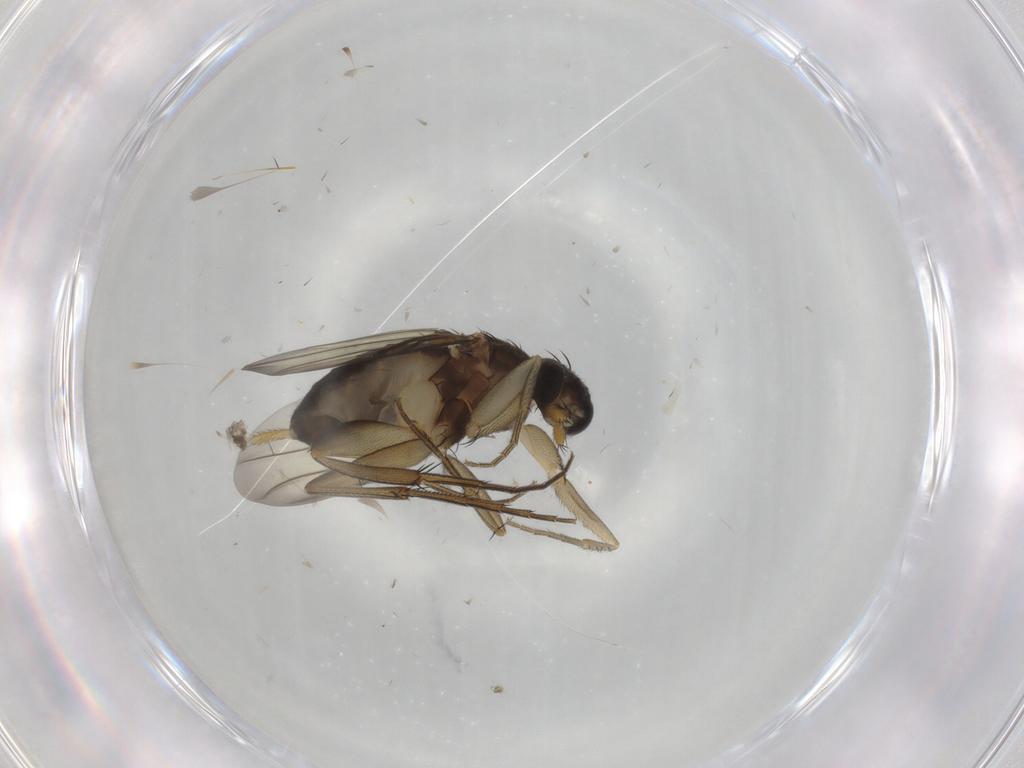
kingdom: Animalia
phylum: Arthropoda
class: Insecta
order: Diptera
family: Phoridae
